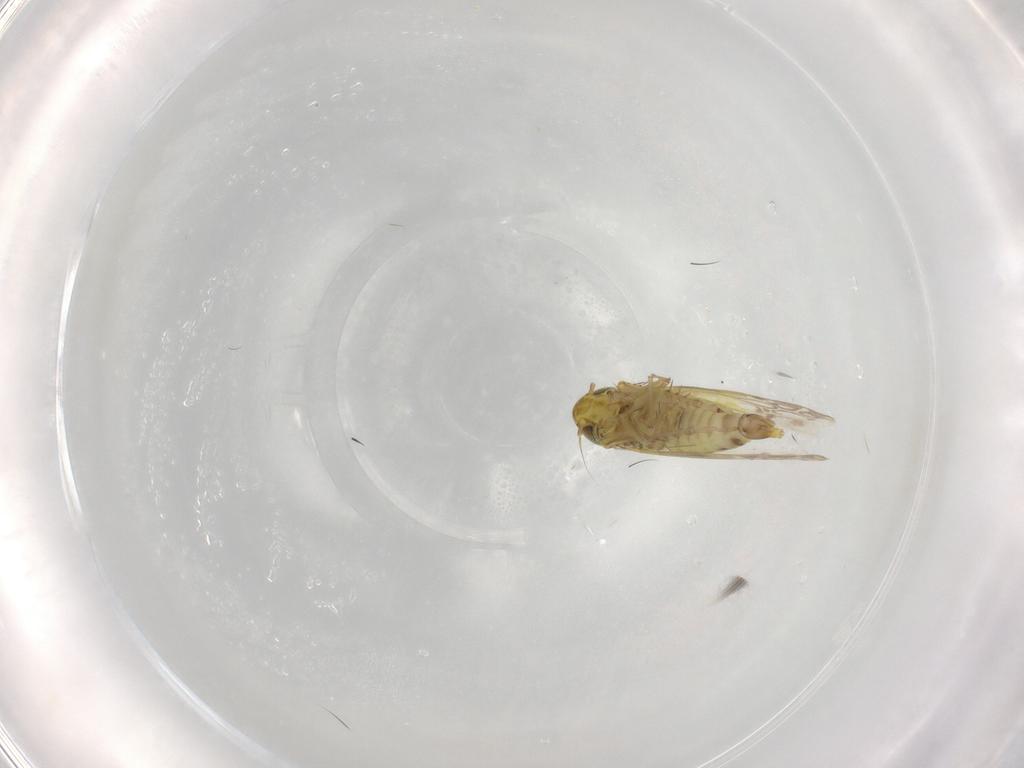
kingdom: Animalia
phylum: Arthropoda
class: Insecta
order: Hemiptera
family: Cicadellidae
